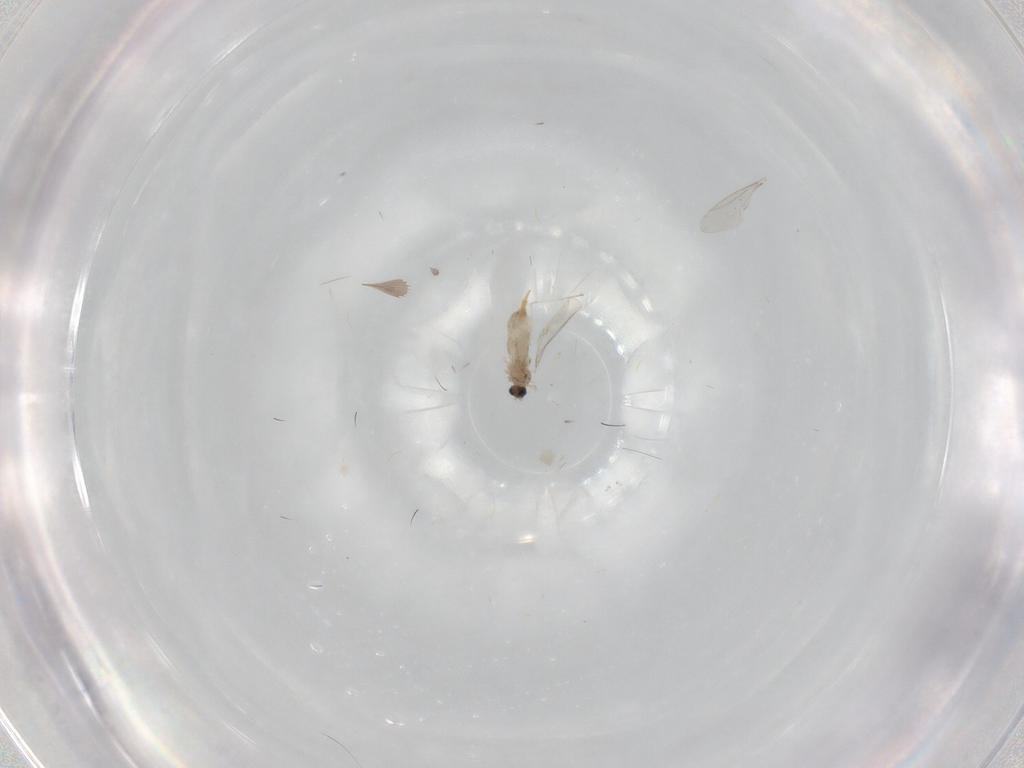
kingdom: Animalia
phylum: Arthropoda
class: Insecta
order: Diptera
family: Cecidomyiidae
